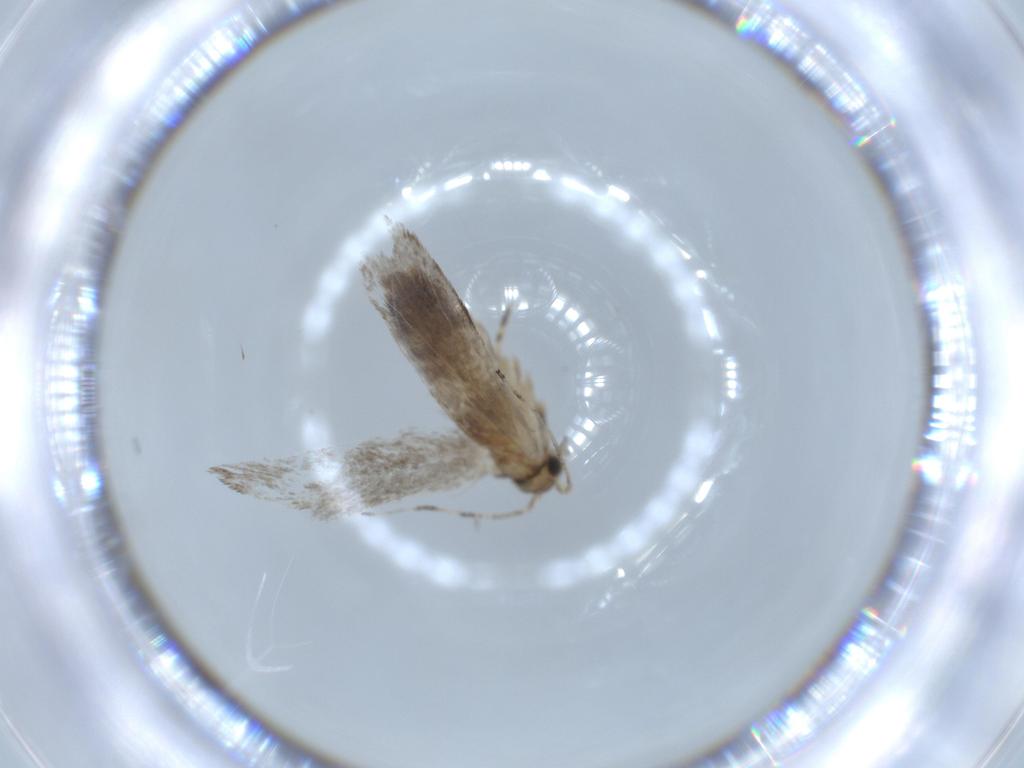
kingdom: Animalia
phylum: Arthropoda
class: Insecta
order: Lepidoptera
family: Tineidae
